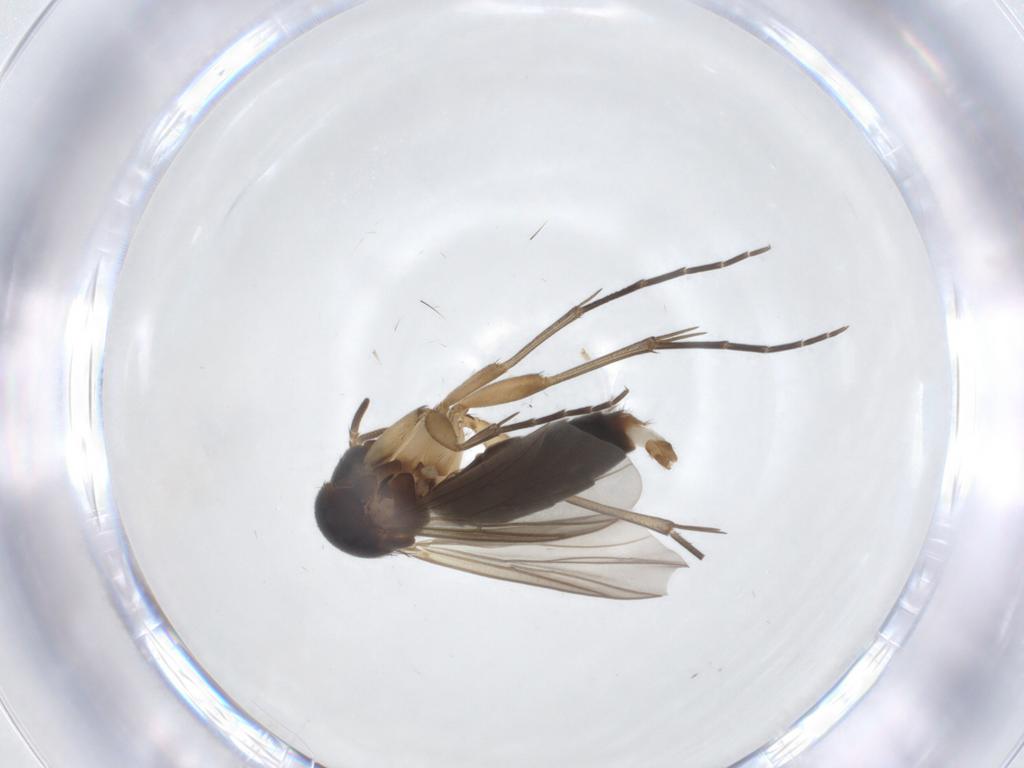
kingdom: Animalia
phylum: Arthropoda
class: Insecta
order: Diptera
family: Mycetophilidae
